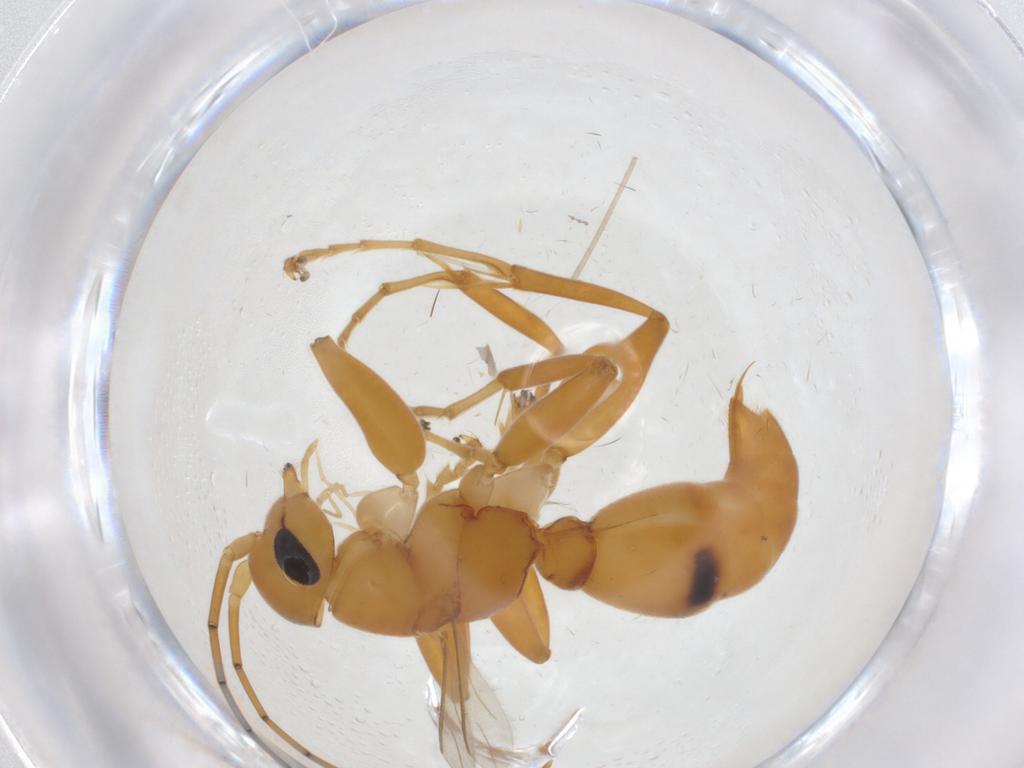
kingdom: Animalia
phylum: Arthropoda
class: Insecta
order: Hymenoptera
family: Rhopalosomatidae
